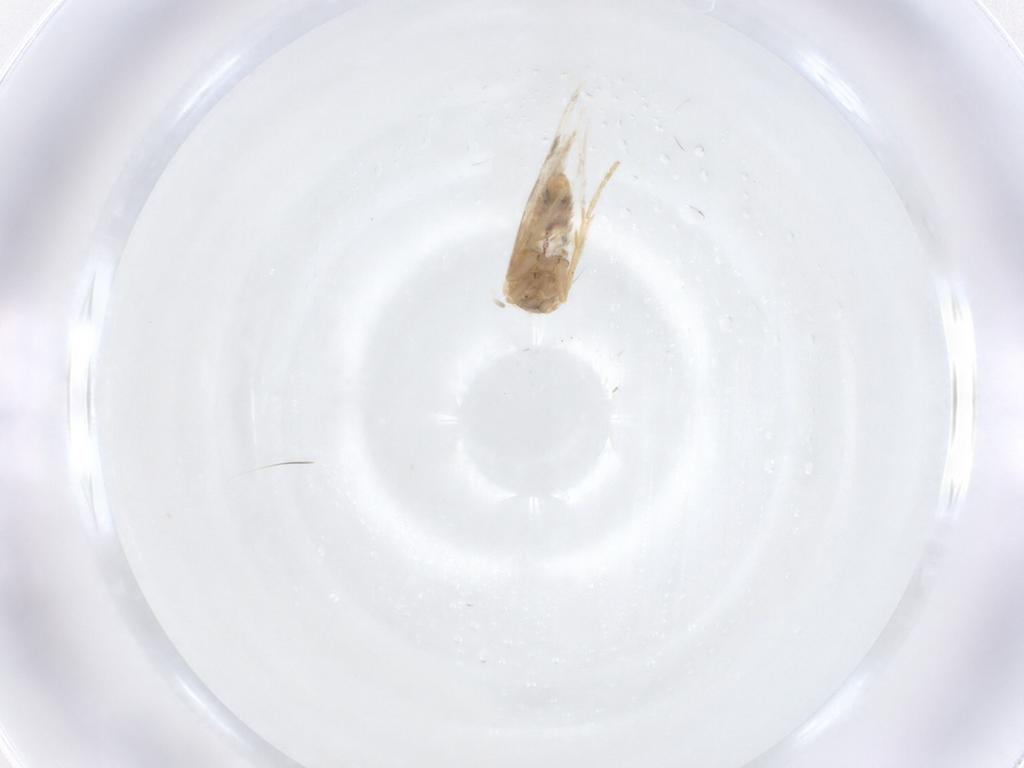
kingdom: Animalia
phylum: Arthropoda
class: Insecta
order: Lepidoptera
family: Nepticulidae
